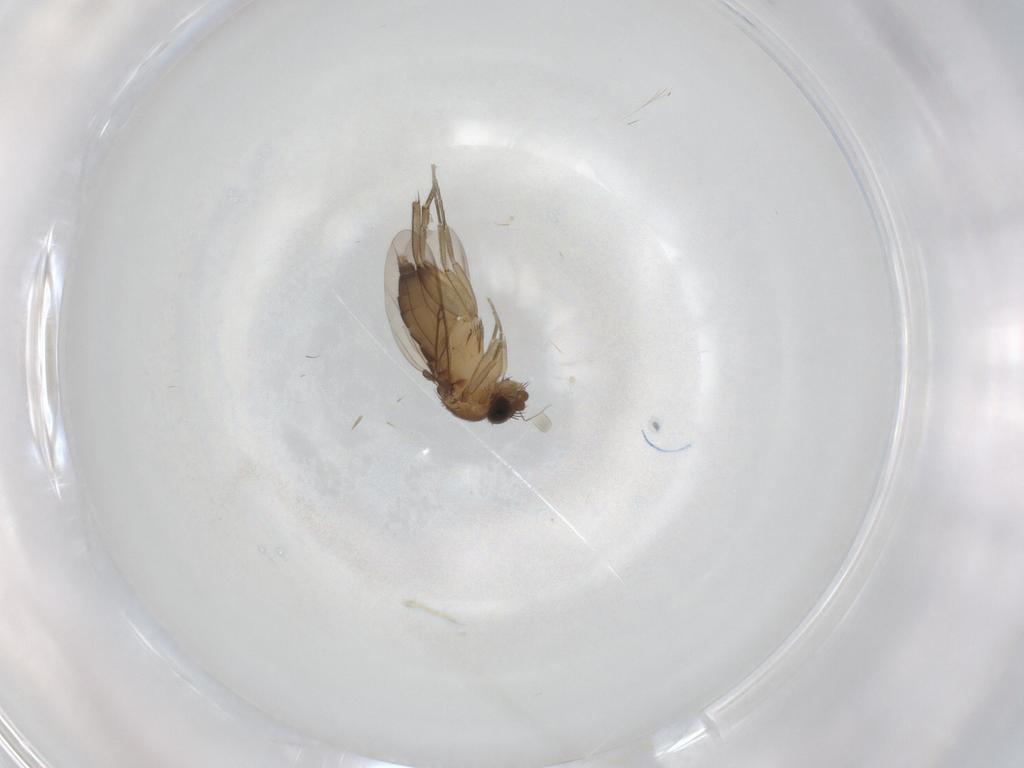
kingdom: Animalia
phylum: Arthropoda
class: Insecta
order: Diptera
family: Phoridae
